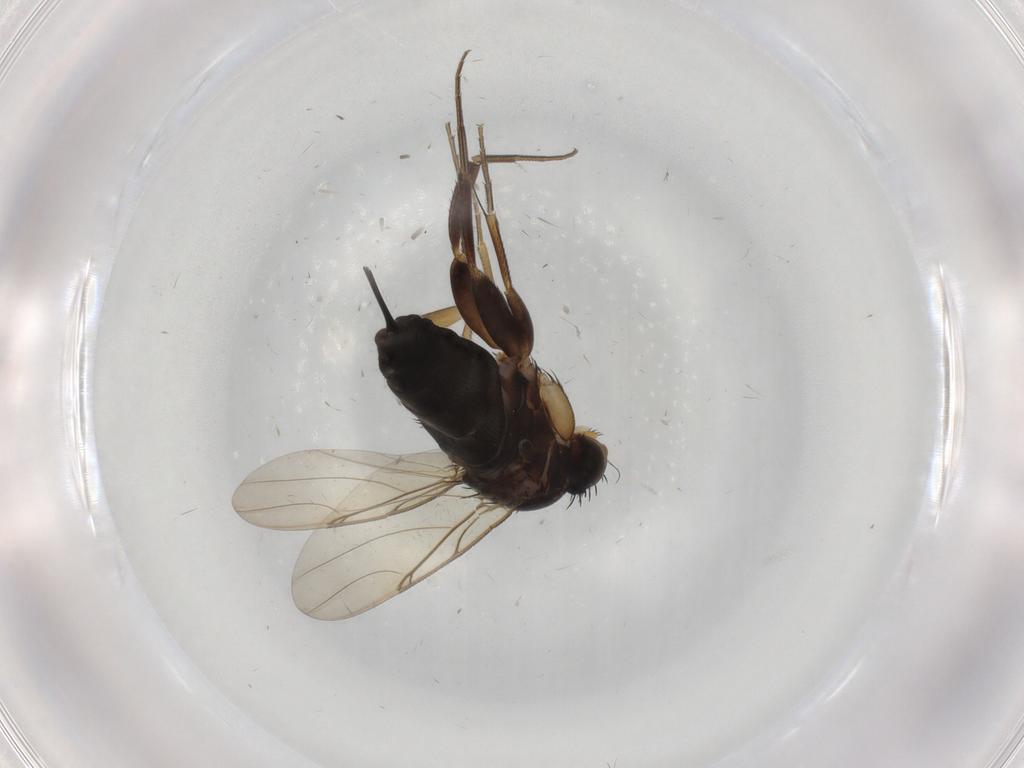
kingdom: Animalia
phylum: Arthropoda
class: Insecta
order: Diptera
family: Phoridae
